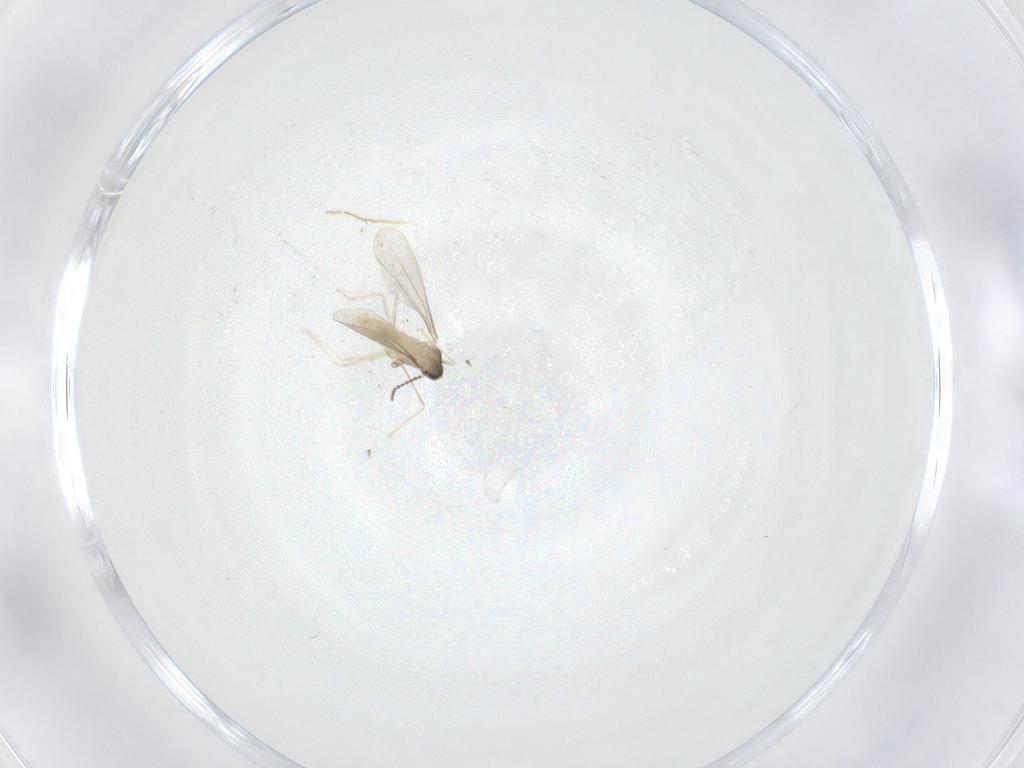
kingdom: Animalia
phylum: Arthropoda
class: Insecta
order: Diptera
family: Cecidomyiidae
